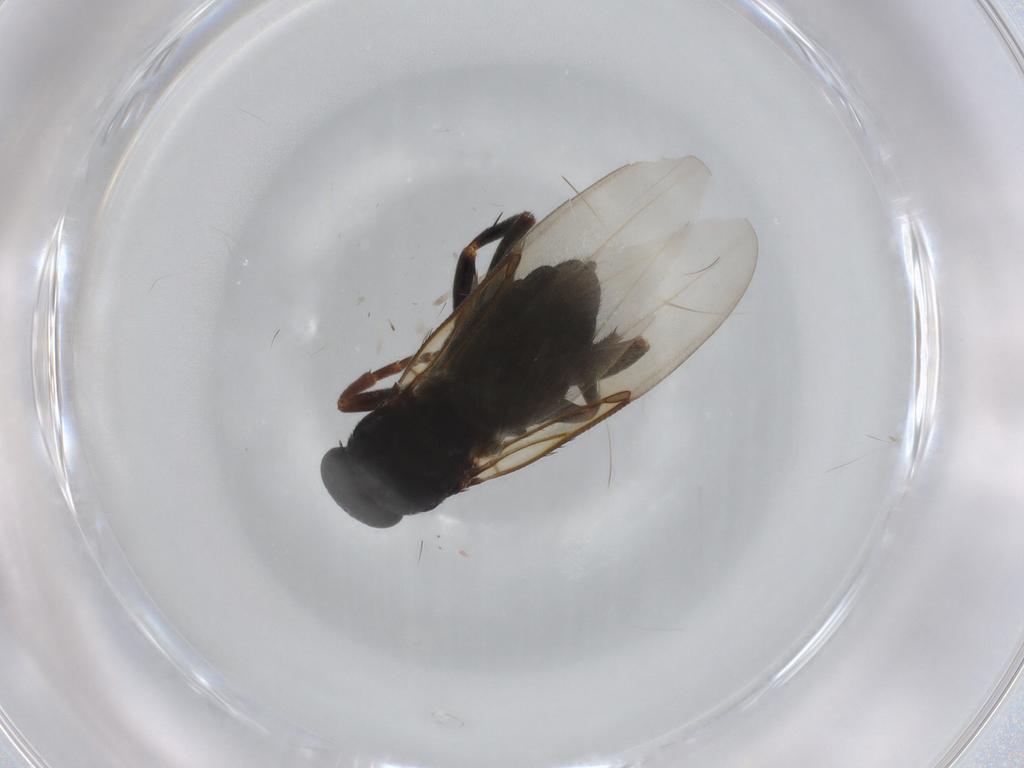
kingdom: Animalia
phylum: Arthropoda
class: Insecta
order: Diptera
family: Phoridae
